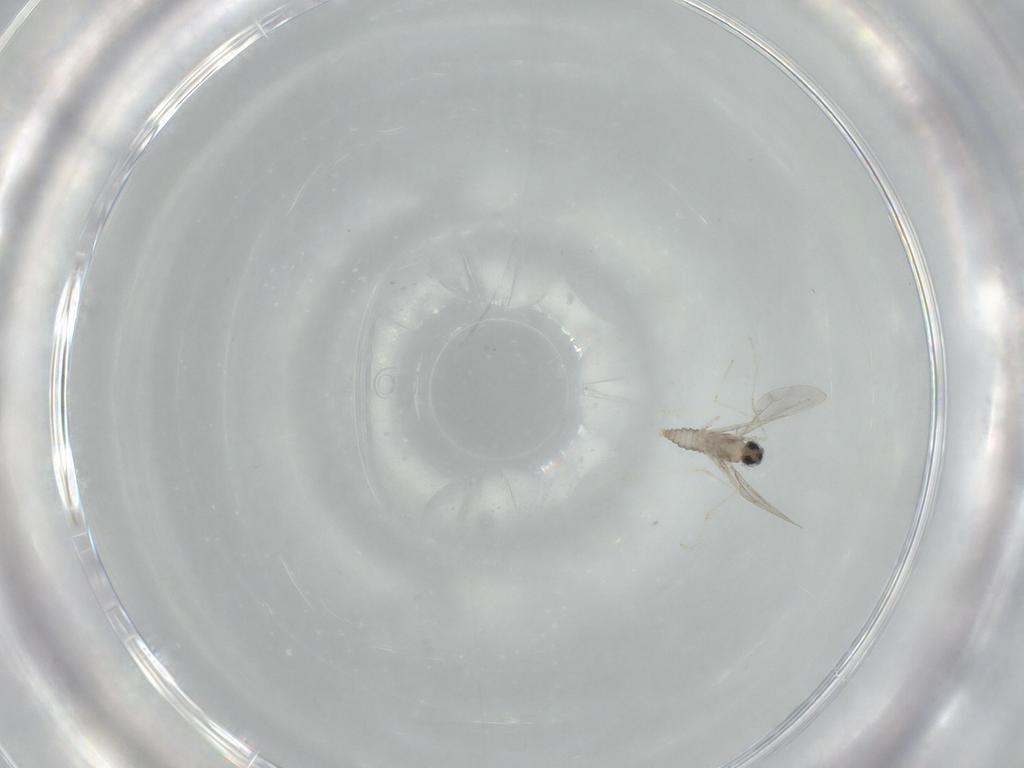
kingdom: Animalia
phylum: Arthropoda
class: Insecta
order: Diptera
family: Cecidomyiidae
